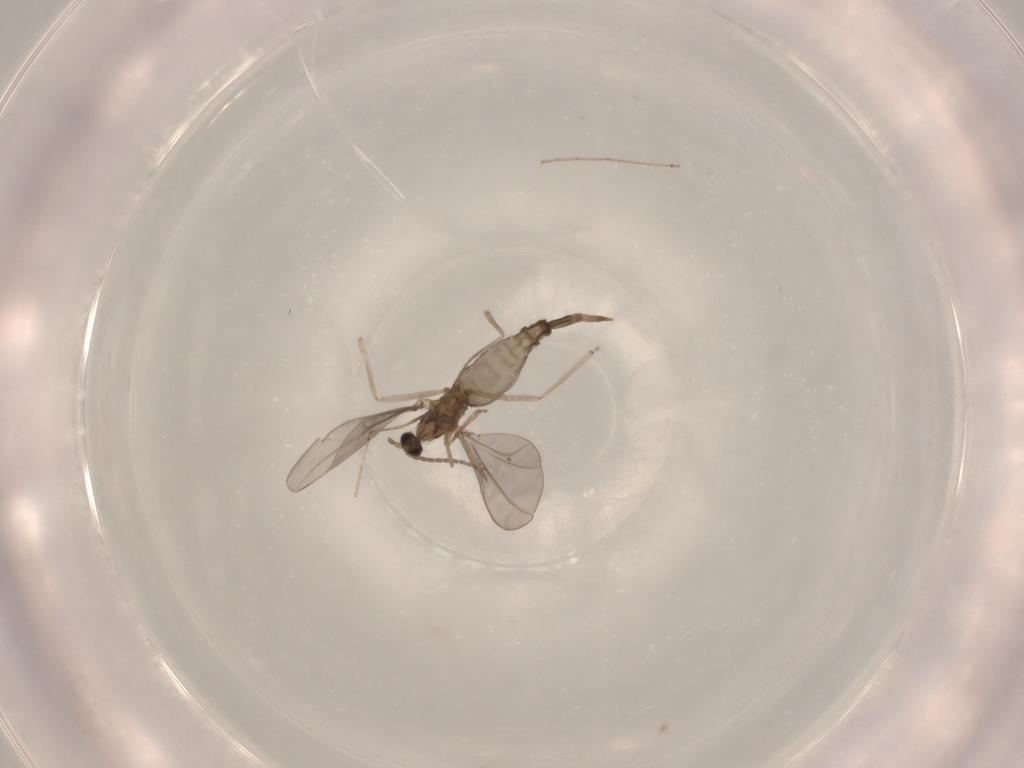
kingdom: Animalia
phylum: Arthropoda
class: Insecta
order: Diptera
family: Cecidomyiidae
